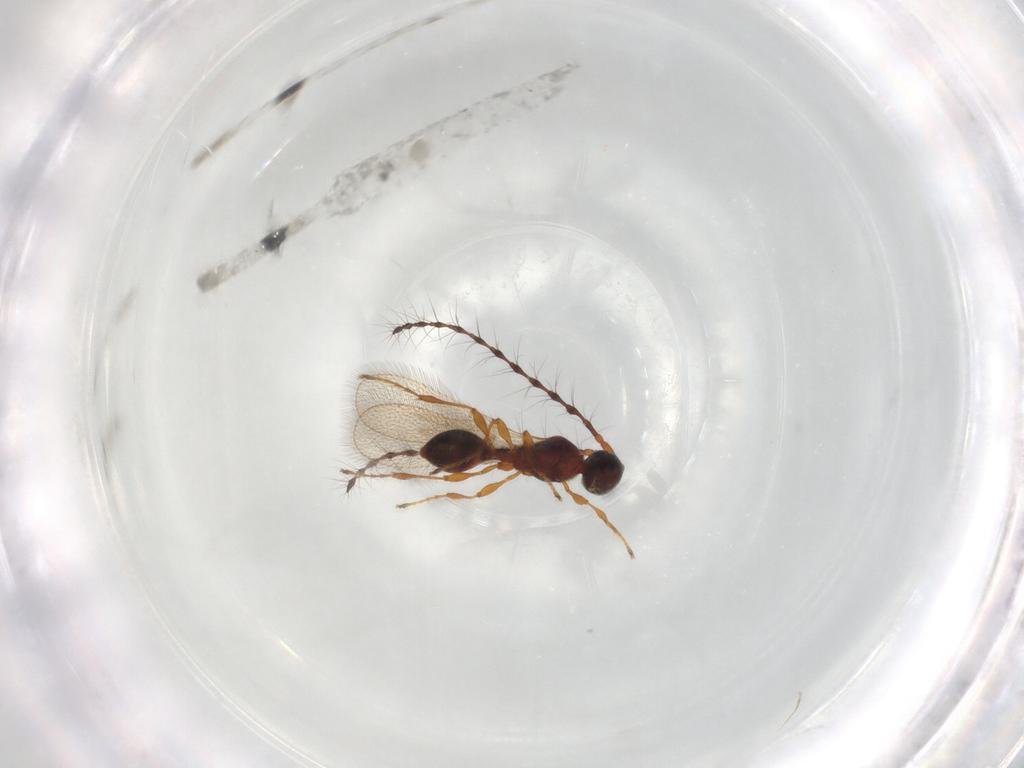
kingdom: Animalia
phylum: Arthropoda
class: Insecta
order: Hymenoptera
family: Diapriidae
